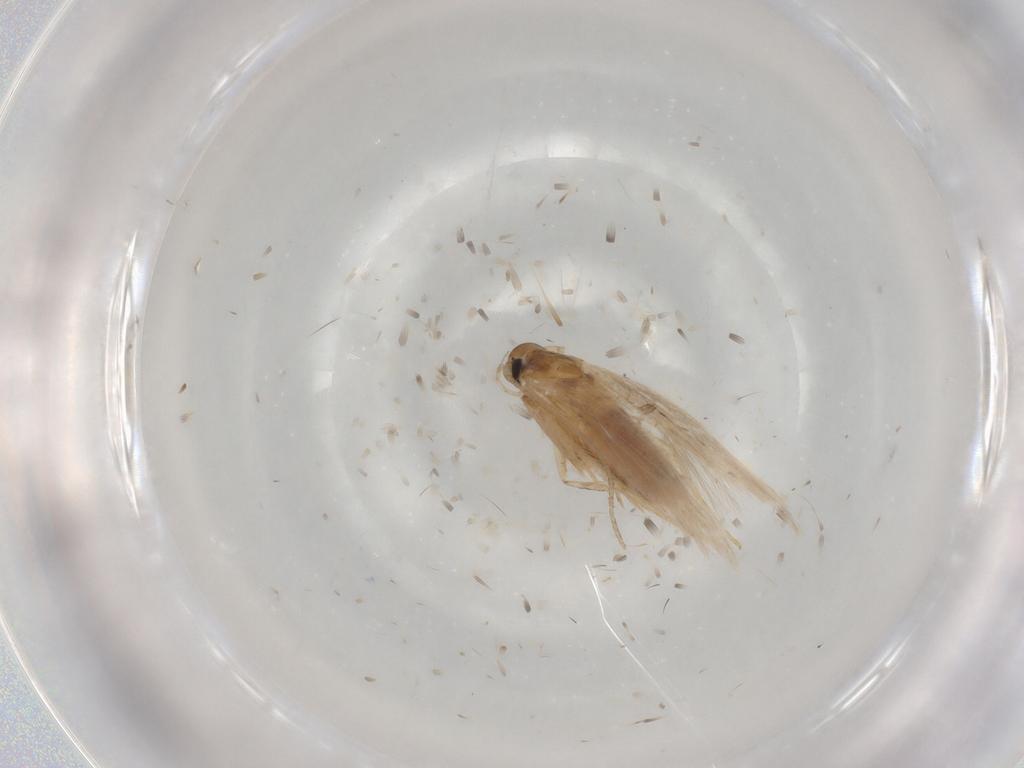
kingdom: Animalia
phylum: Arthropoda
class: Insecta
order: Lepidoptera
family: Cosmopterigidae
